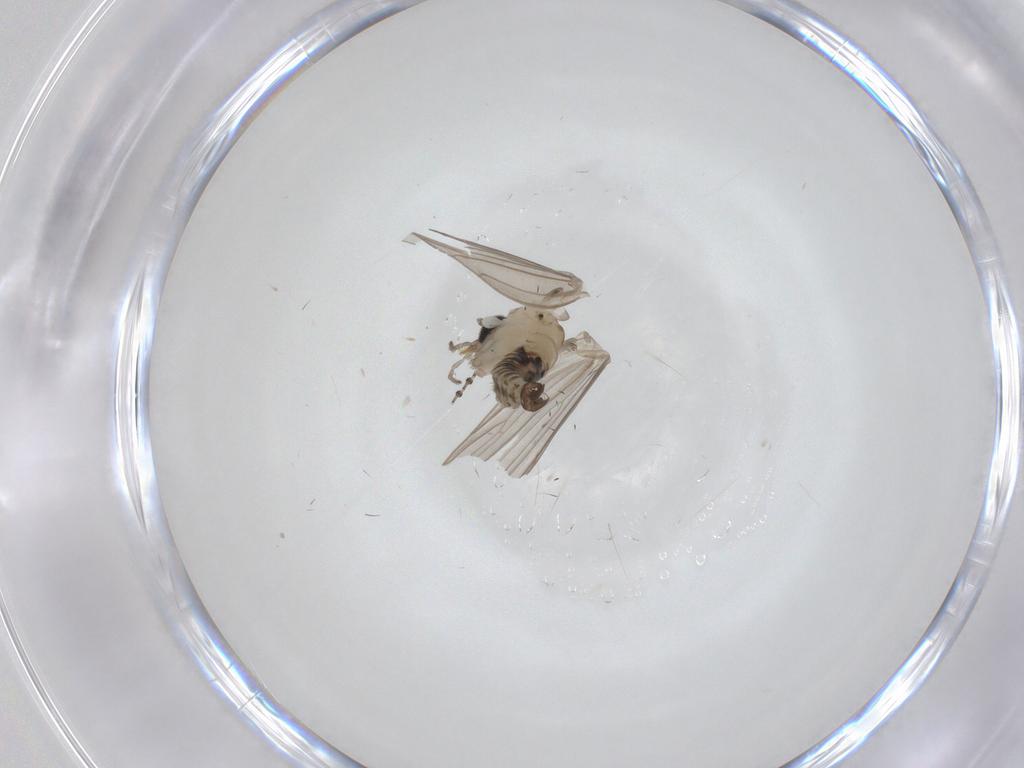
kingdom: Animalia
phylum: Arthropoda
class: Insecta
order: Diptera
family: Psychodidae
